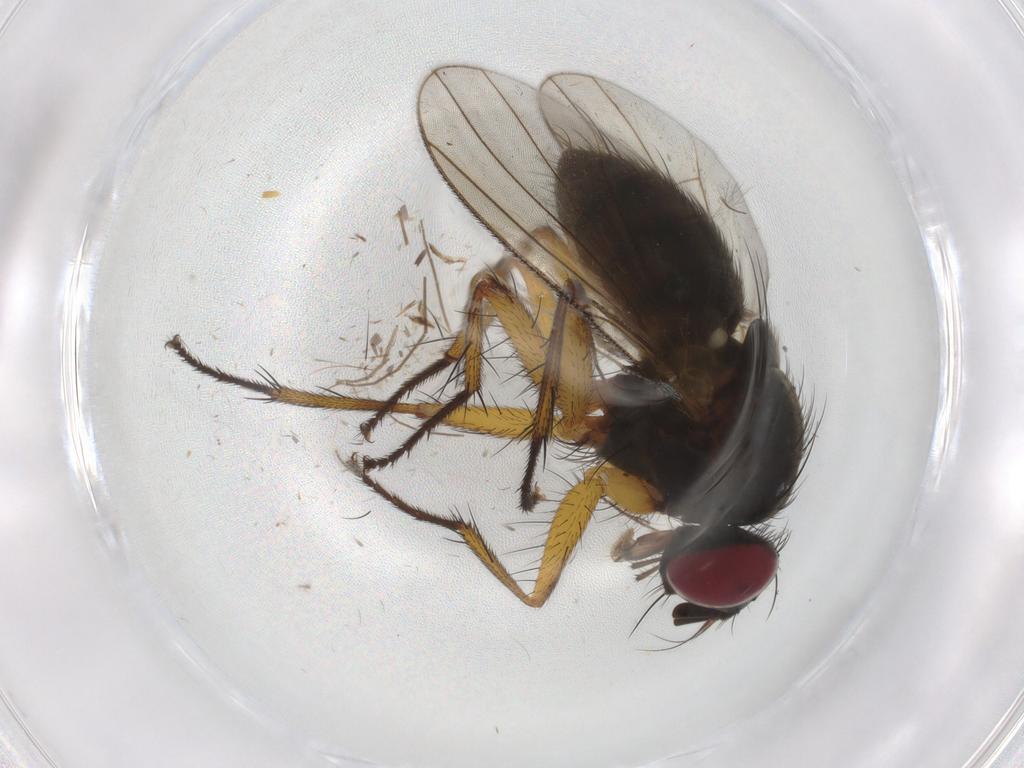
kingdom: Animalia
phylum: Arthropoda
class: Insecta
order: Diptera
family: Muscidae
